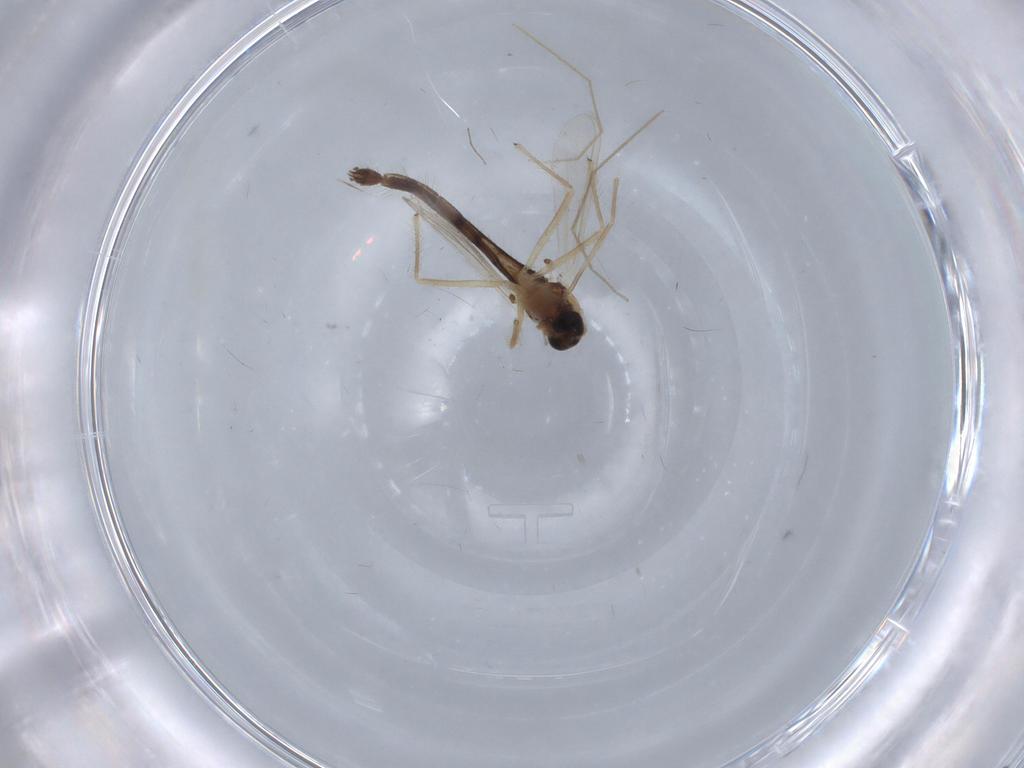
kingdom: Animalia
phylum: Arthropoda
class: Insecta
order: Diptera
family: Chironomidae
